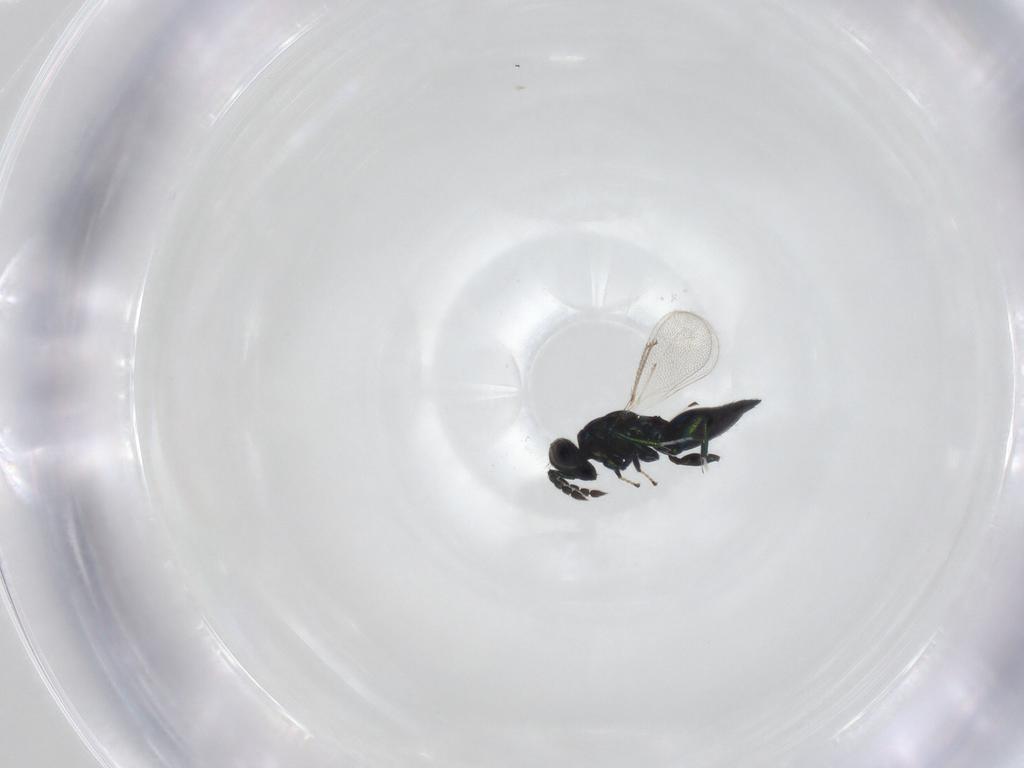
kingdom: Animalia
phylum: Arthropoda
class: Insecta
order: Hymenoptera
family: Eulophidae
